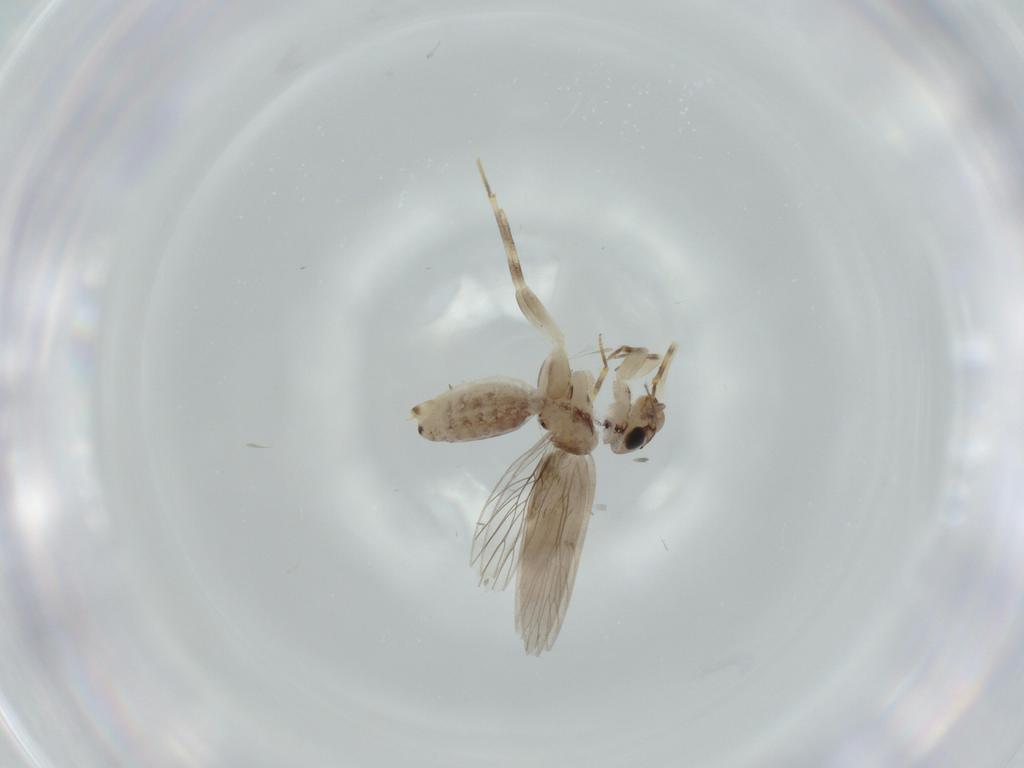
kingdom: Animalia
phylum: Arthropoda
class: Insecta
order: Psocodea
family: Lepidopsocidae
